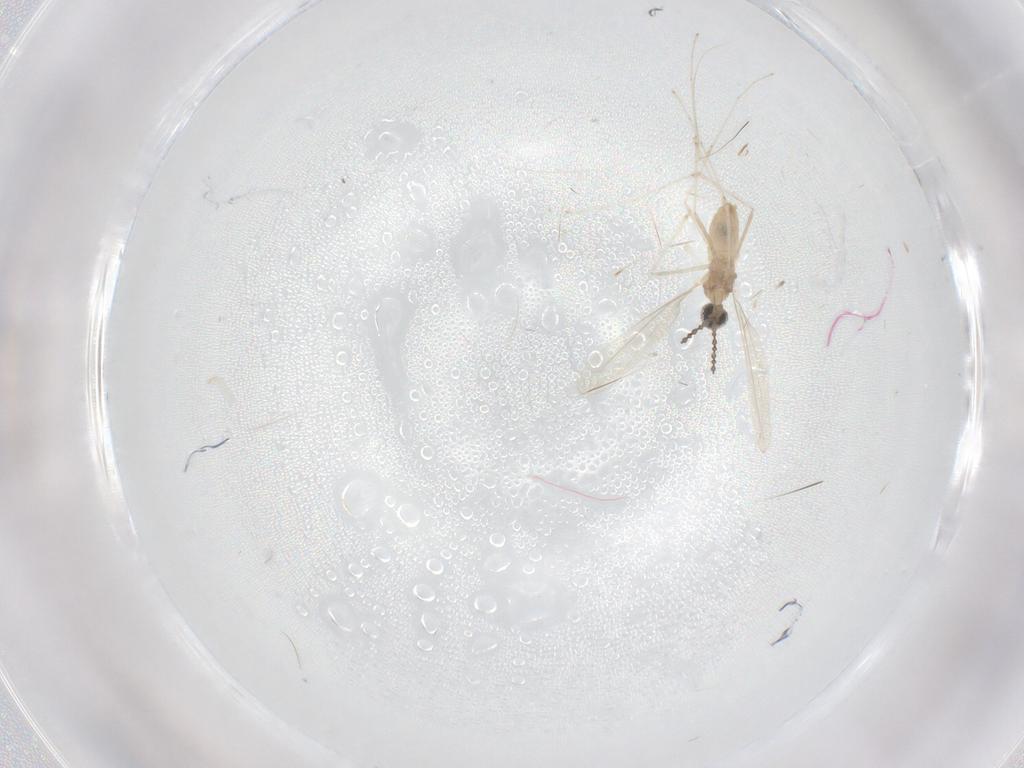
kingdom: Animalia
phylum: Arthropoda
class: Insecta
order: Diptera
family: Cecidomyiidae
